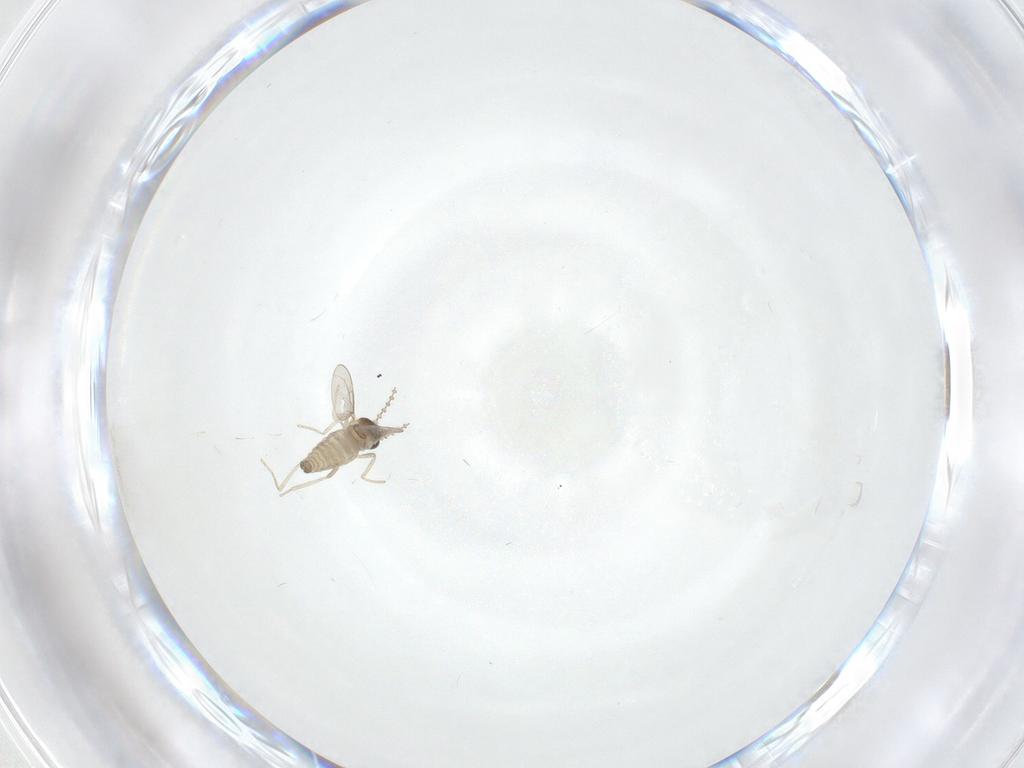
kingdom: Animalia
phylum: Arthropoda
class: Insecta
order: Diptera
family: Cecidomyiidae
